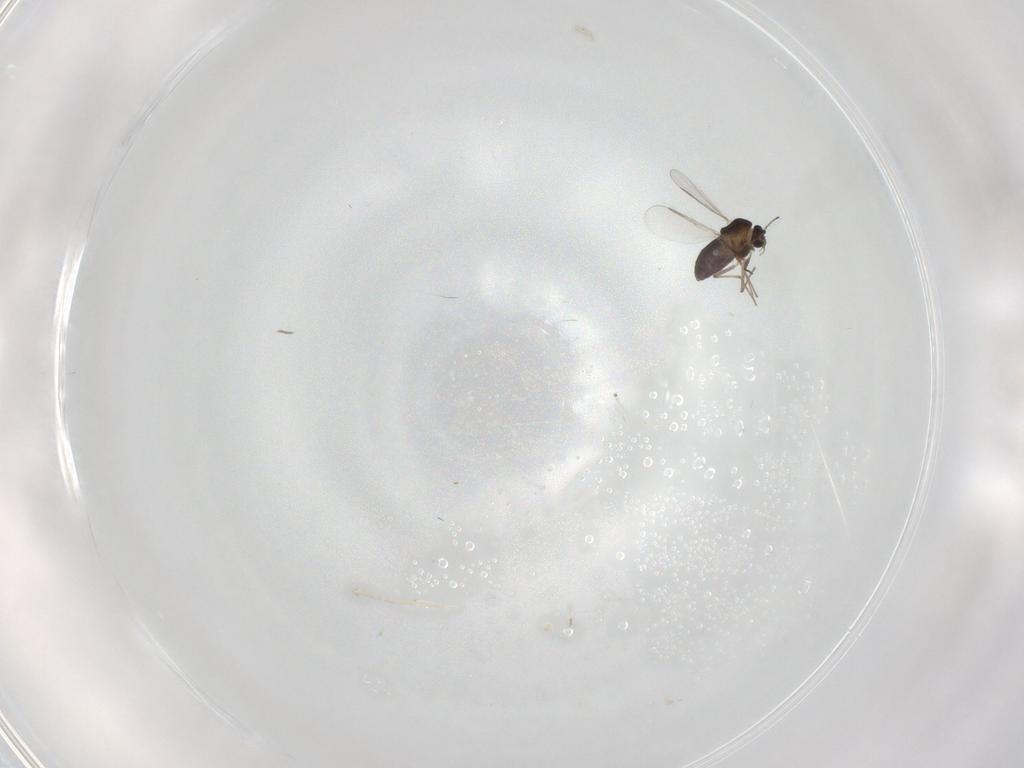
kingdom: Animalia
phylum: Arthropoda
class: Insecta
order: Diptera
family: Chironomidae
